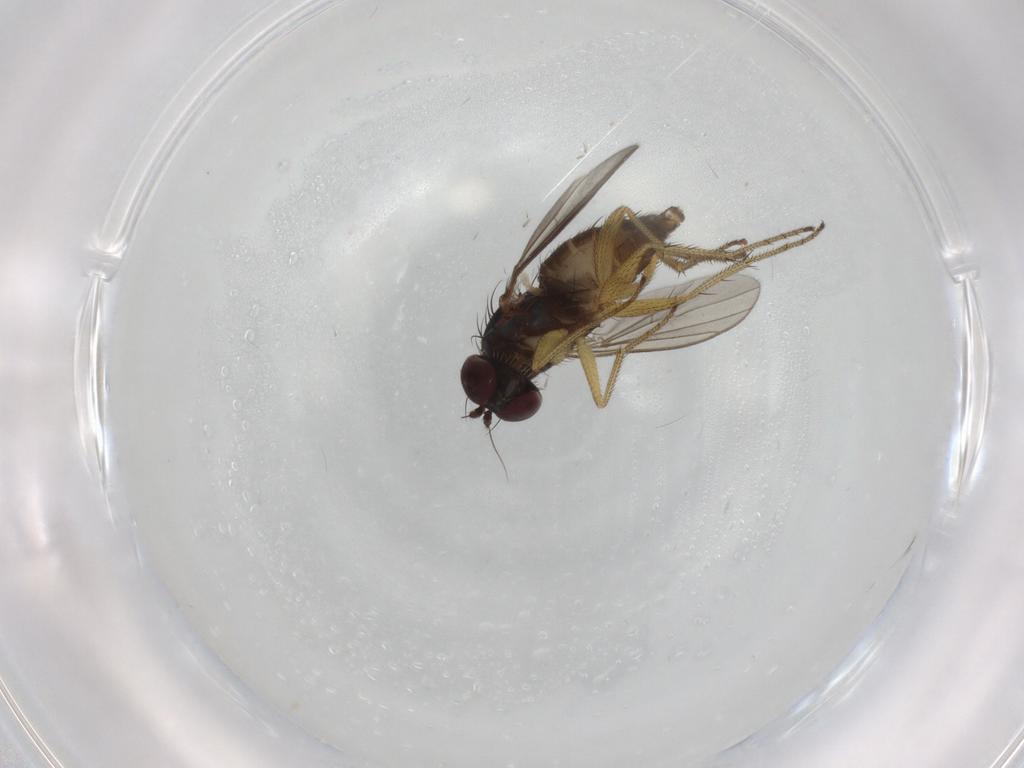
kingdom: Animalia
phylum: Arthropoda
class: Insecta
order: Diptera
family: Dolichopodidae
